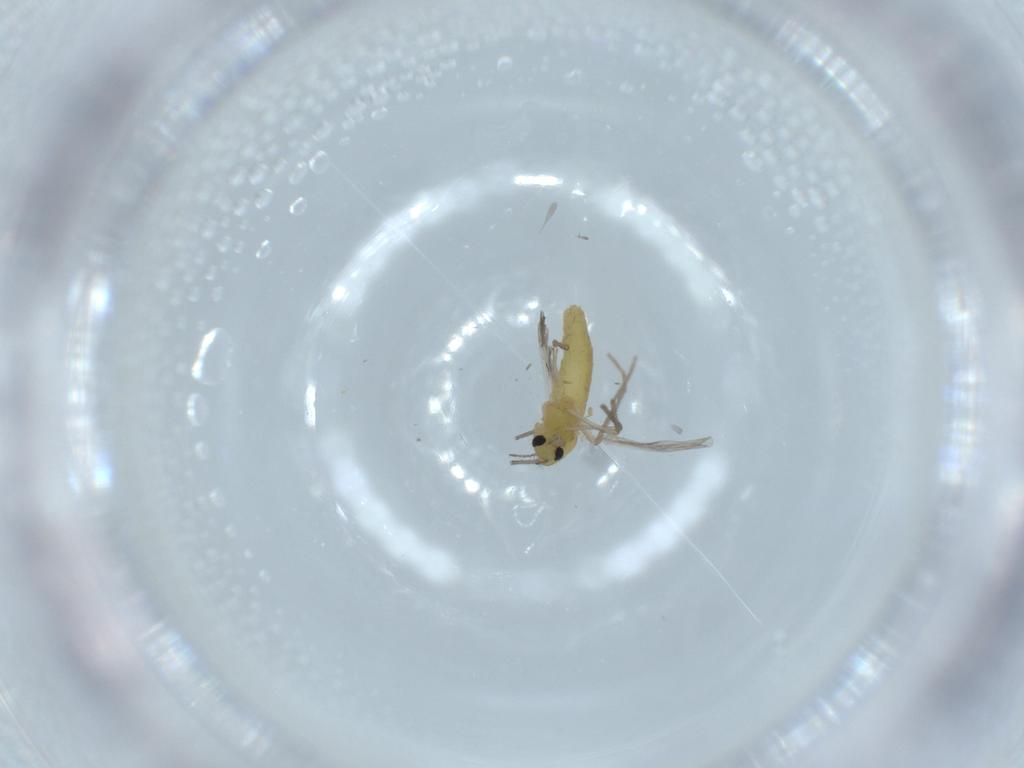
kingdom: Animalia
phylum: Arthropoda
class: Insecta
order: Diptera
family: Chironomidae
